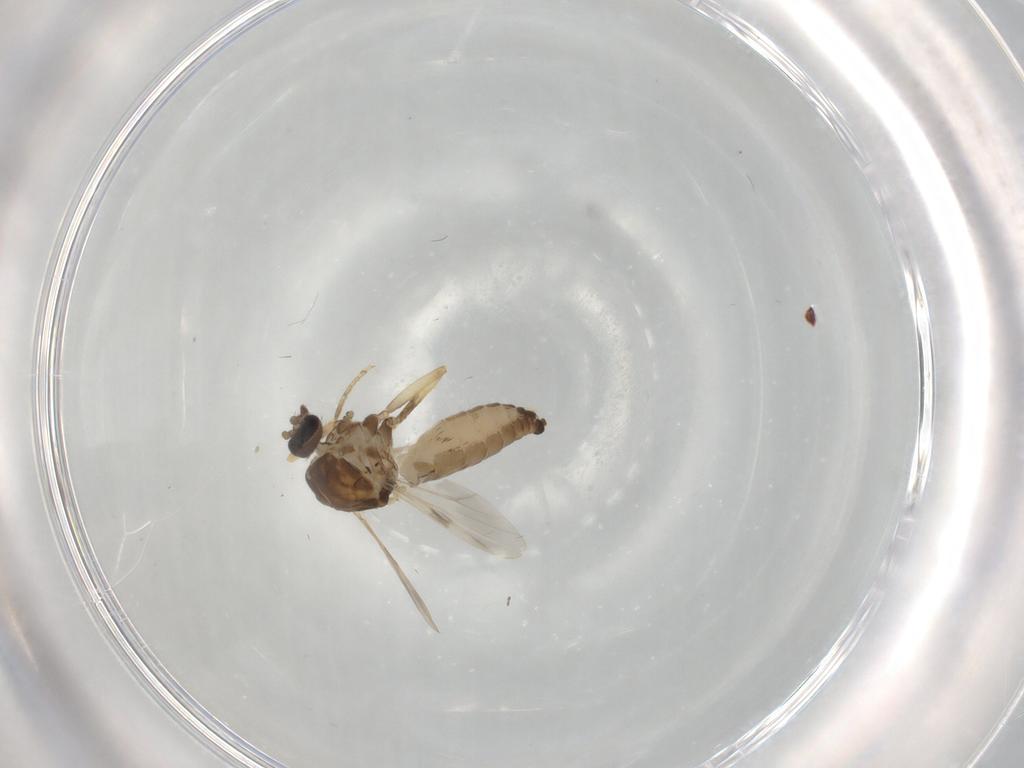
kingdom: Animalia
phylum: Arthropoda
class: Insecta
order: Diptera
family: Ceratopogonidae
